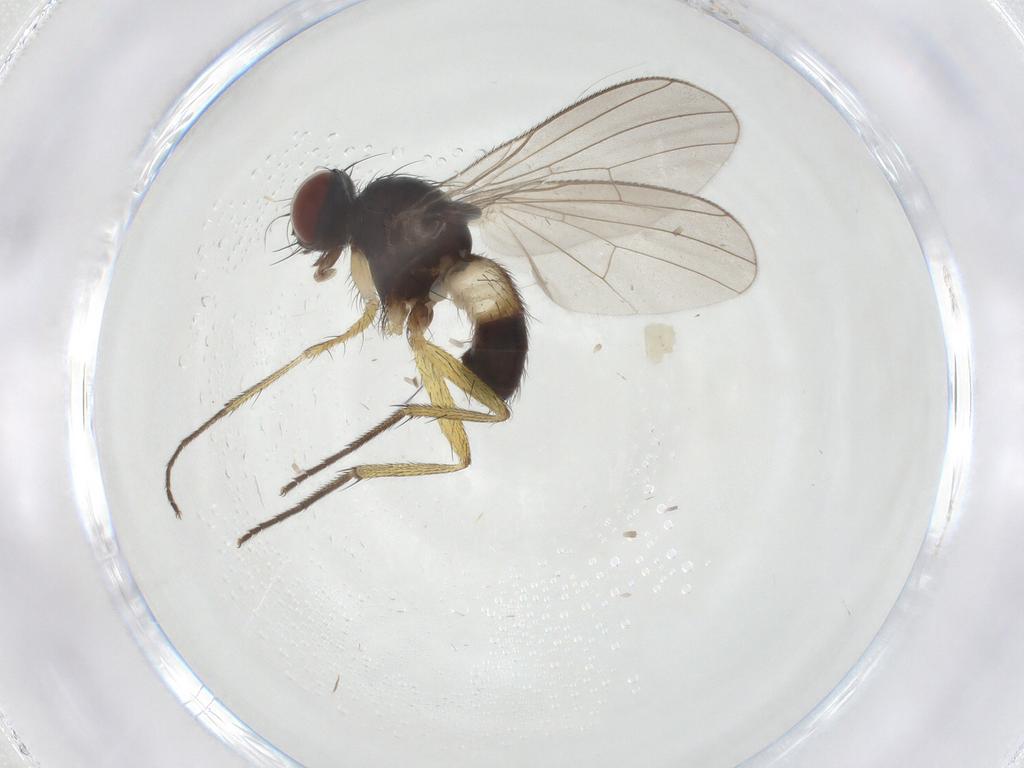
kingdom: Animalia
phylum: Arthropoda
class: Insecta
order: Diptera
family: Muscidae
